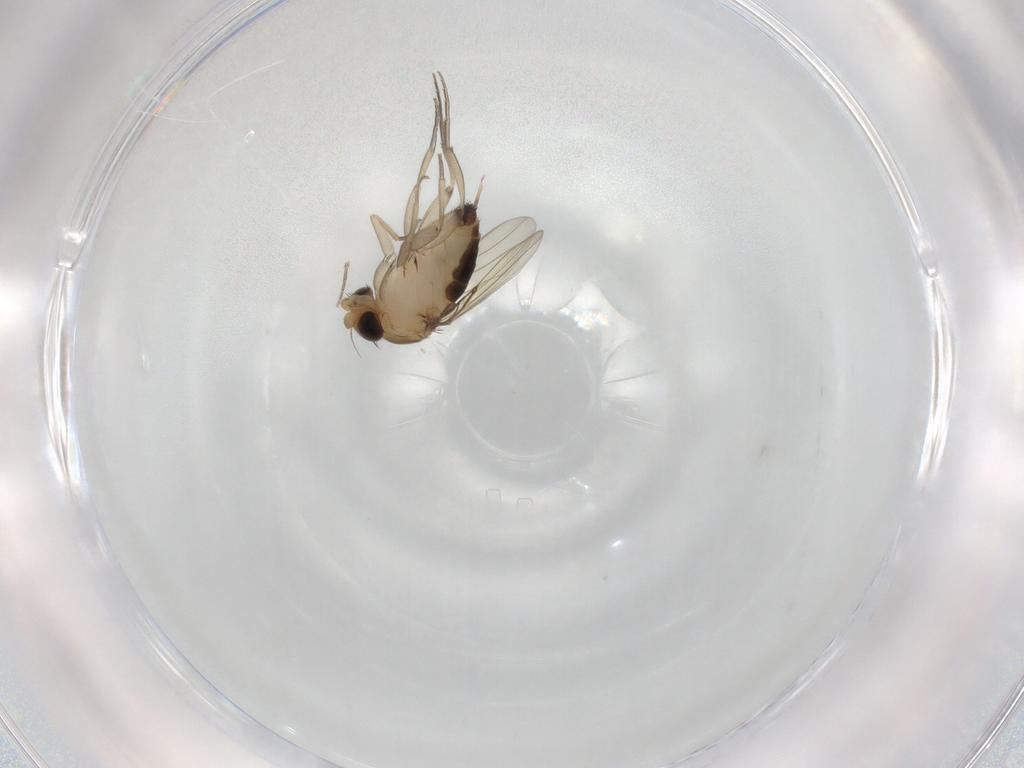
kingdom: Animalia
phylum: Arthropoda
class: Insecta
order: Diptera
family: Phoridae
